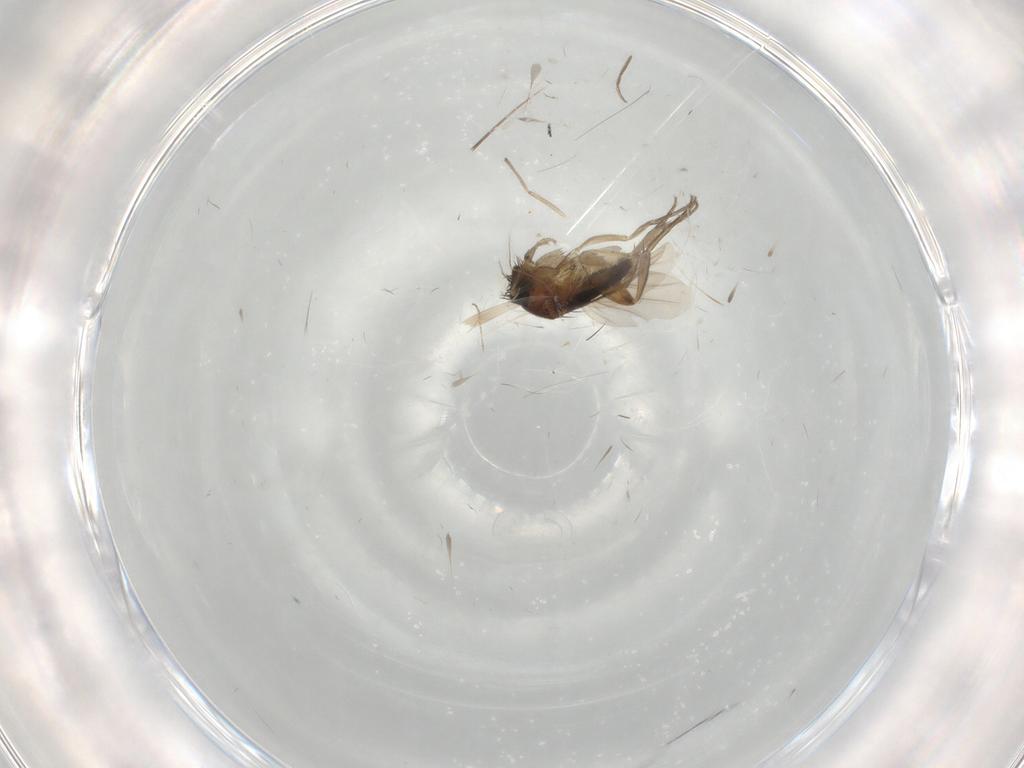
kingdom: Animalia
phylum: Arthropoda
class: Insecta
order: Diptera
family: Phoridae
